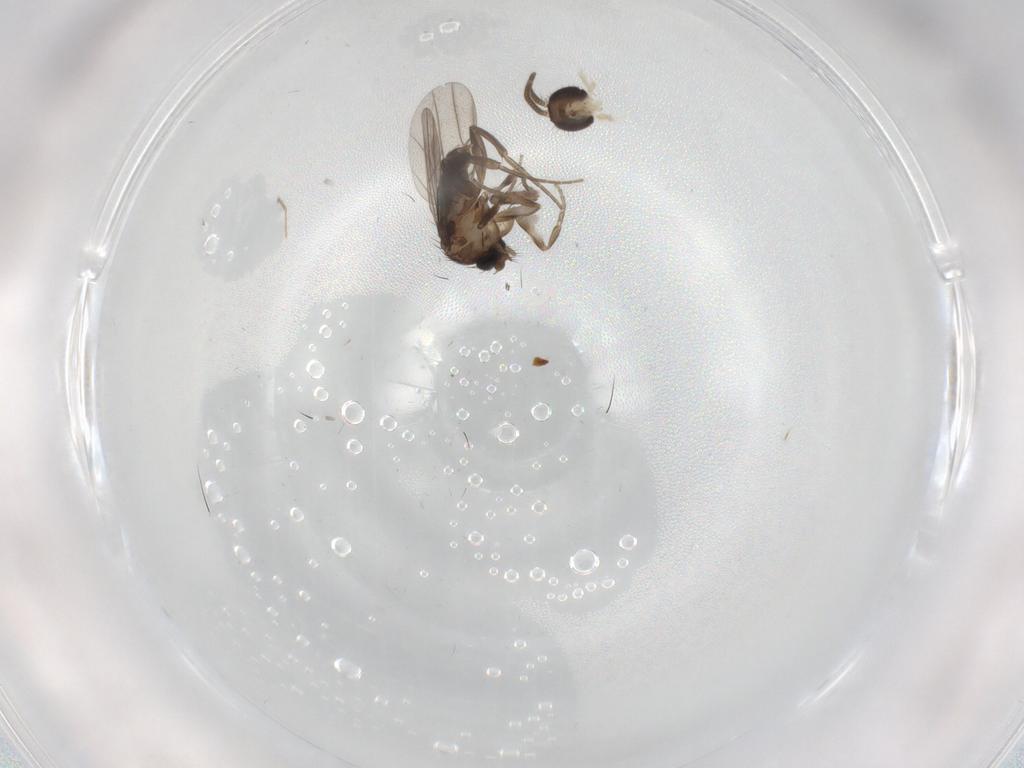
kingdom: Animalia
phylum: Arthropoda
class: Insecta
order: Diptera
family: Mycetophilidae
